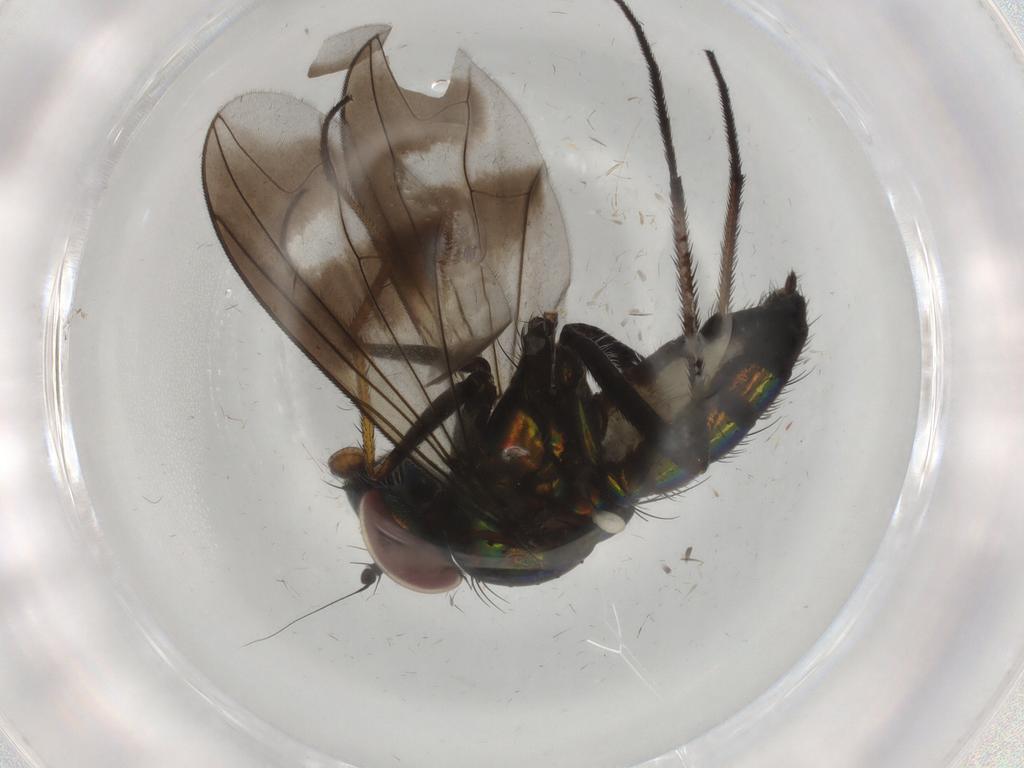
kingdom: Animalia
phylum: Arthropoda
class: Insecta
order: Diptera
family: Dolichopodidae
